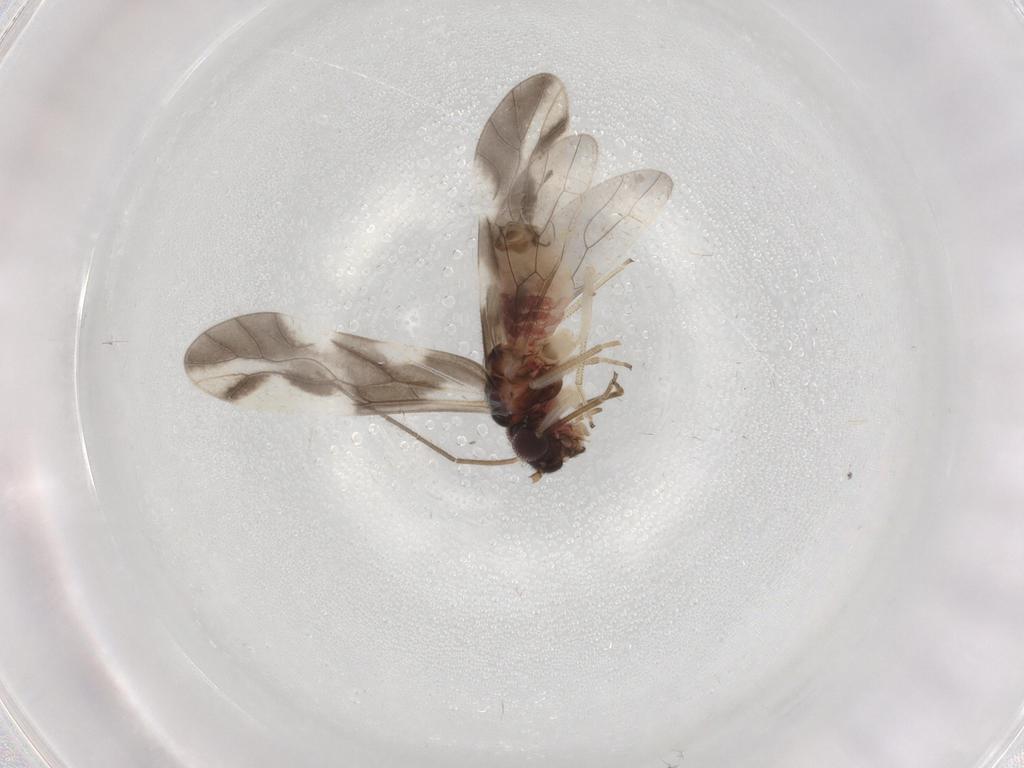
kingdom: Animalia
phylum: Arthropoda
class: Insecta
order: Psocodea
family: Caeciliusidae
